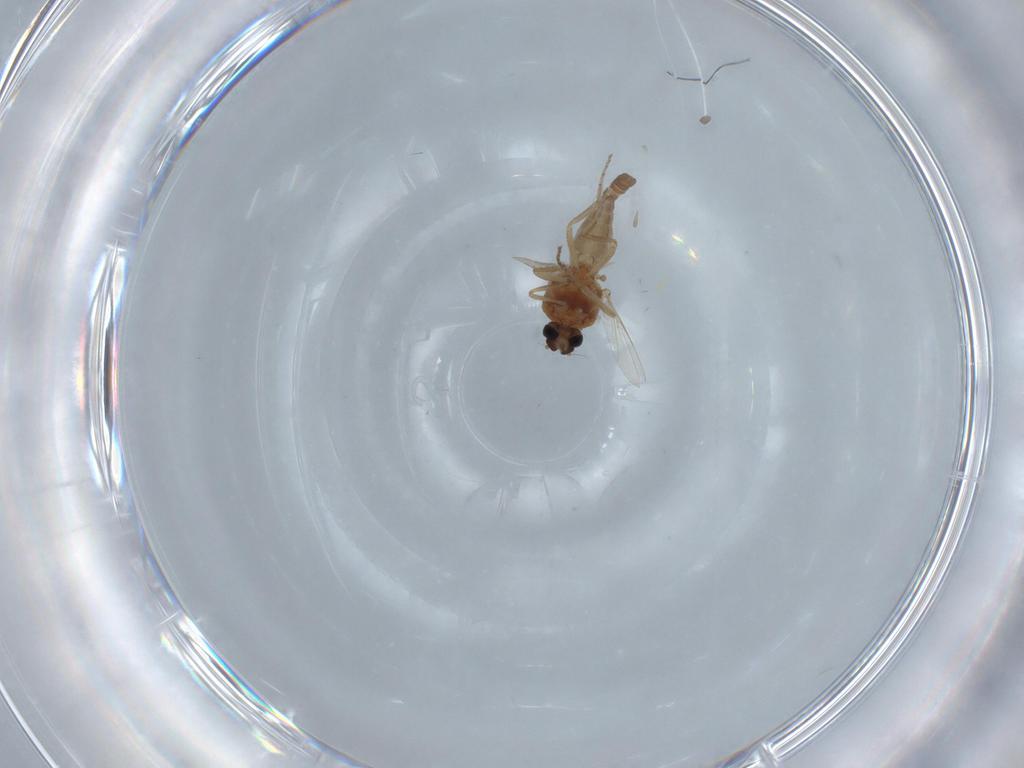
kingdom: Animalia
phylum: Arthropoda
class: Insecta
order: Diptera
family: Ceratopogonidae
